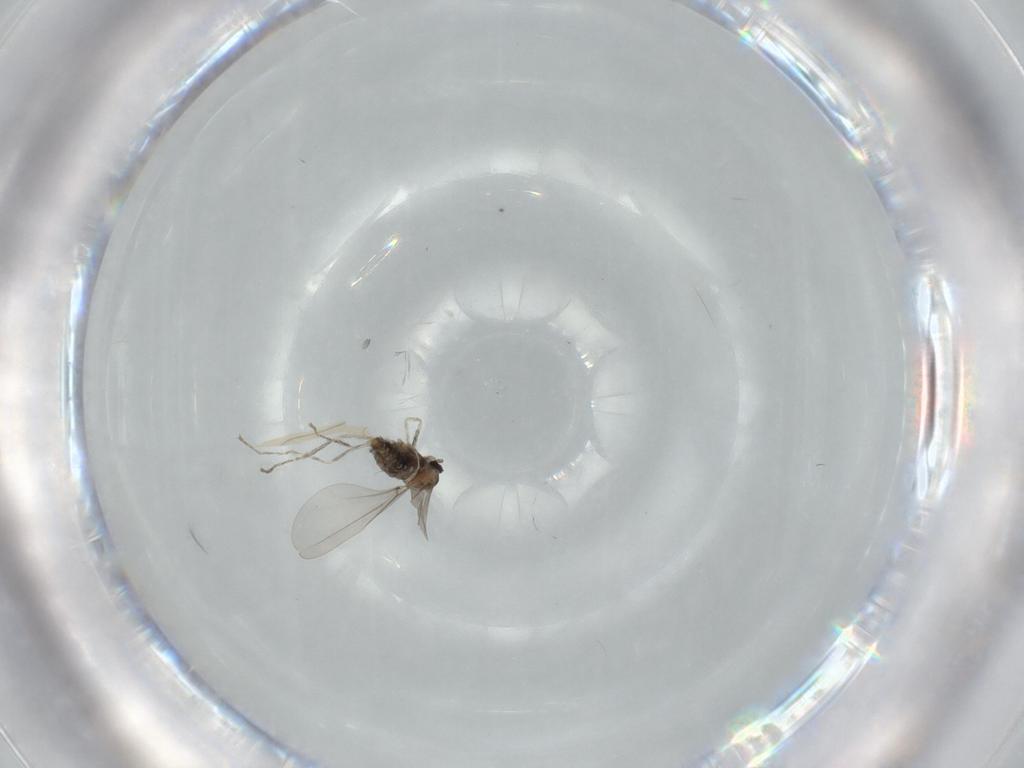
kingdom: Animalia
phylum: Arthropoda
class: Insecta
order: Diptera
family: Cecidomyiidae
